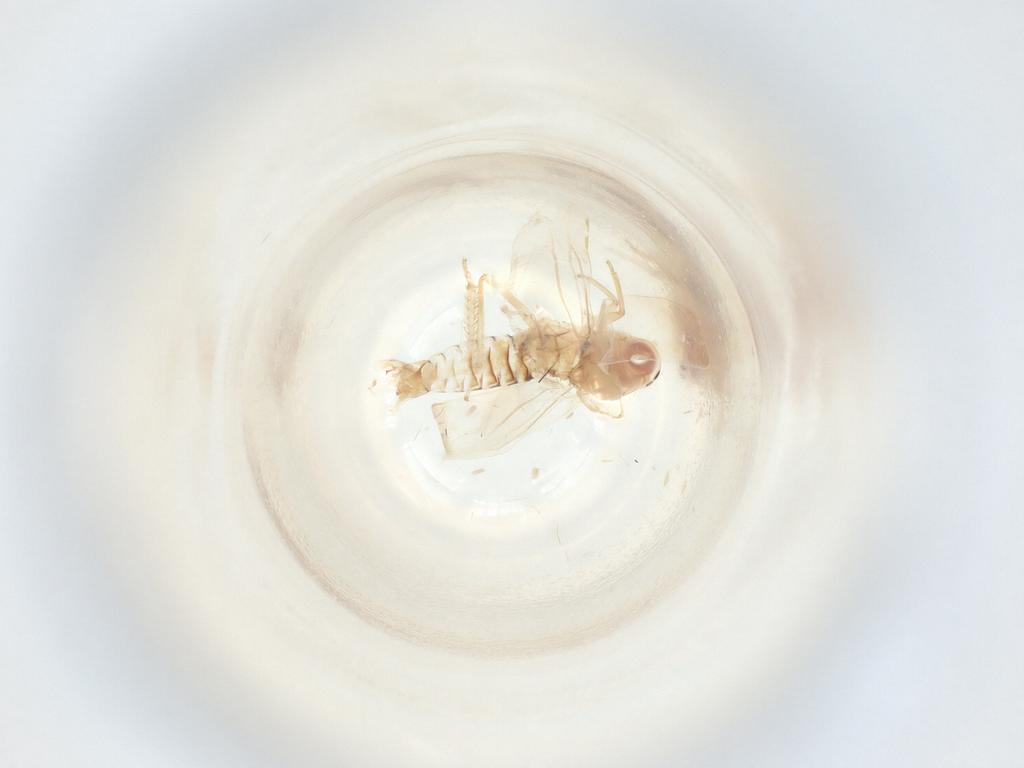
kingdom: Animalia
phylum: Arthropoda
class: Insecta
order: Hemiptera
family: Cicadellidae
